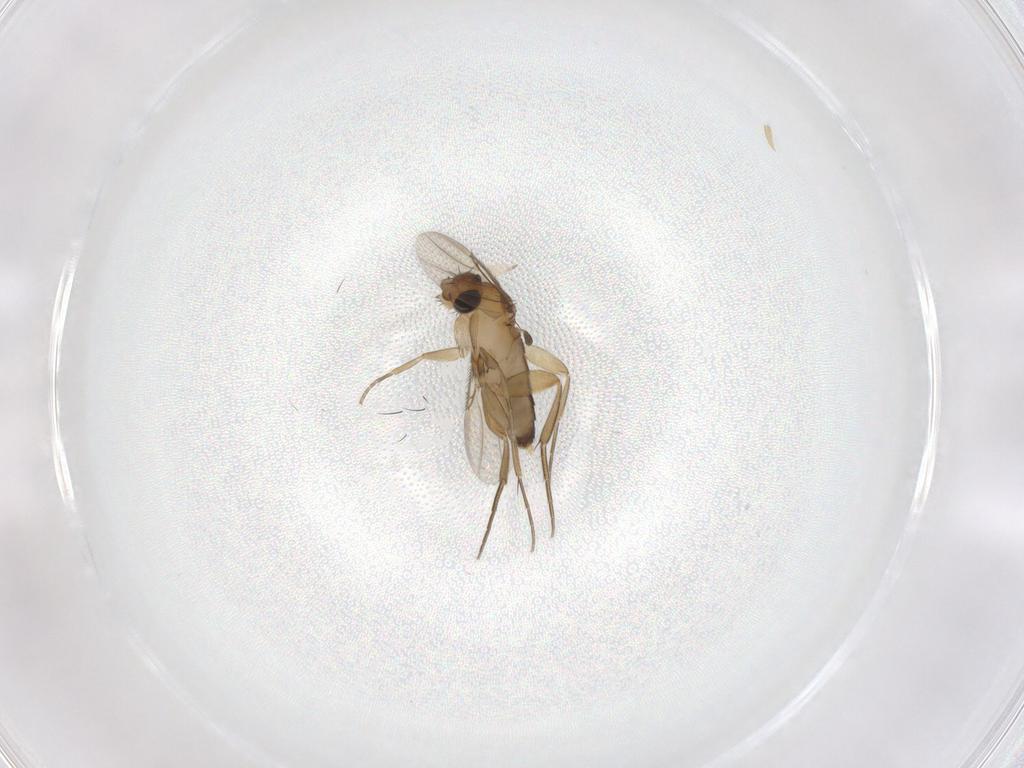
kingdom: Animalia
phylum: Arthropoda
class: Insecta
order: Diptera
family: Phoridae
